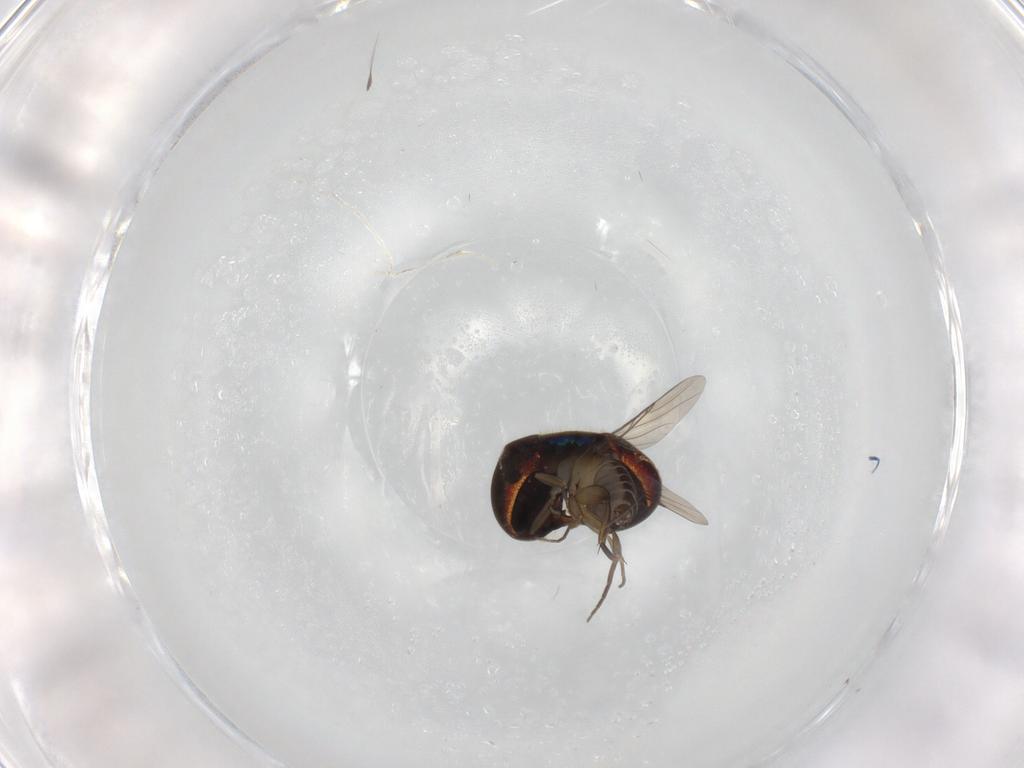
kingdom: Animalia
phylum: Arthropoda
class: Insecta
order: Diptera
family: Stratiomyidae
